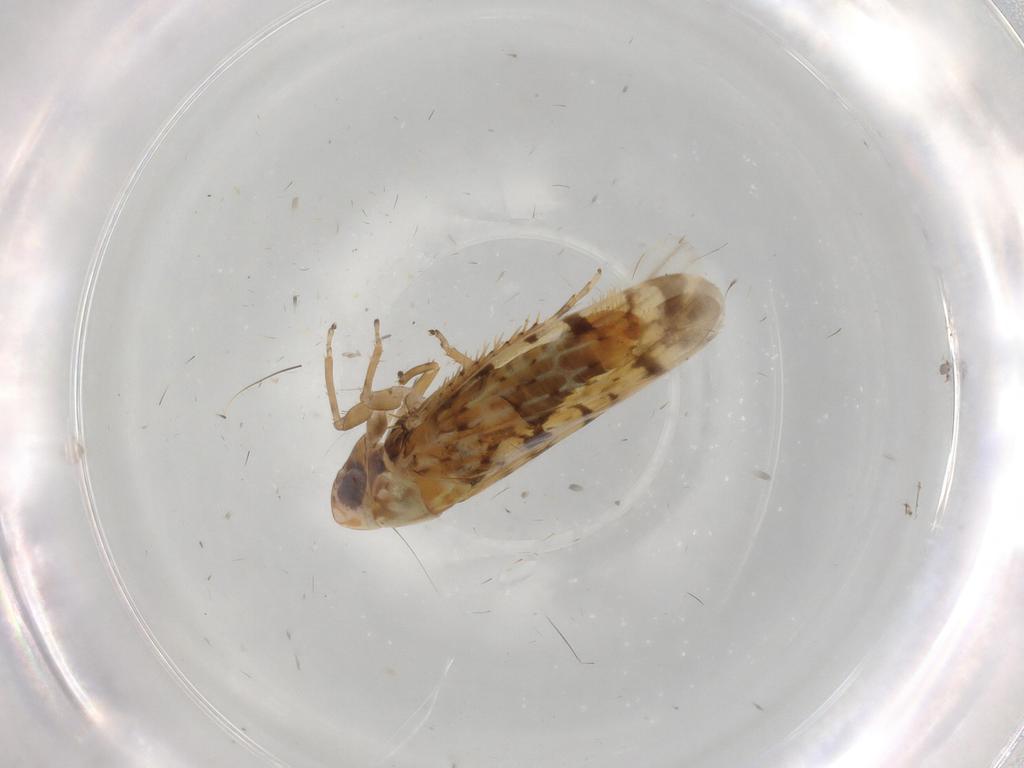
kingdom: Animalia
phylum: Arthropoda
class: Insecta
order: Hemiptera
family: Cicadellidae
